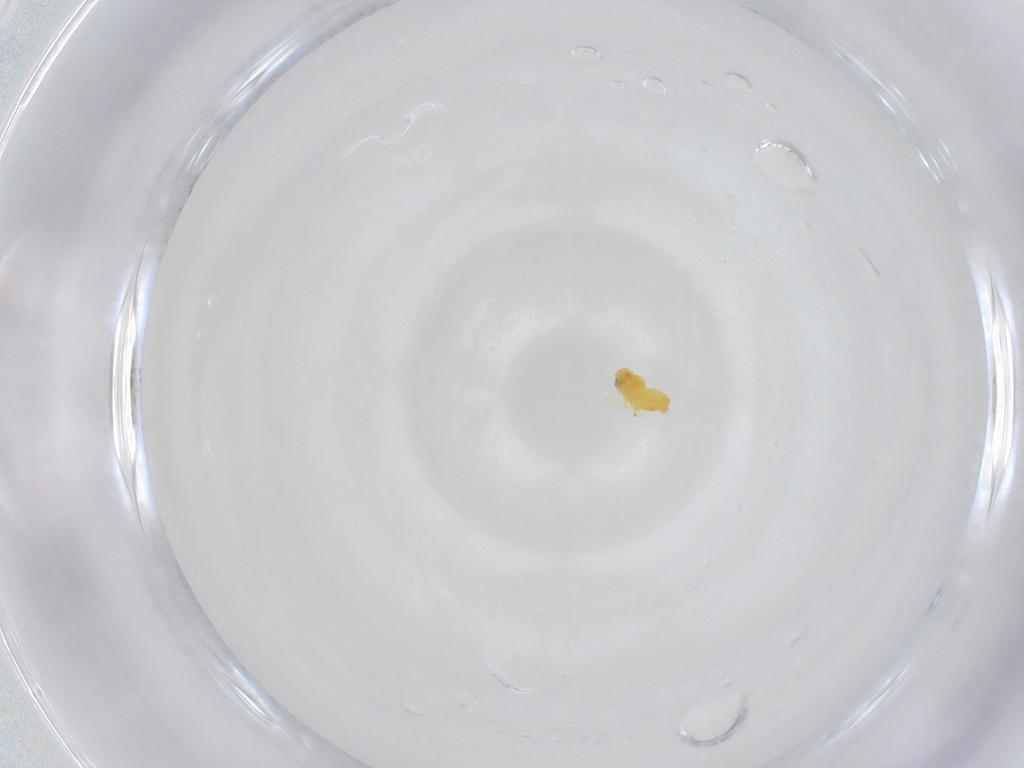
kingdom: Animalia
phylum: Arthropoda
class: Insecta
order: Hemiptera
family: Aleyrodidae
